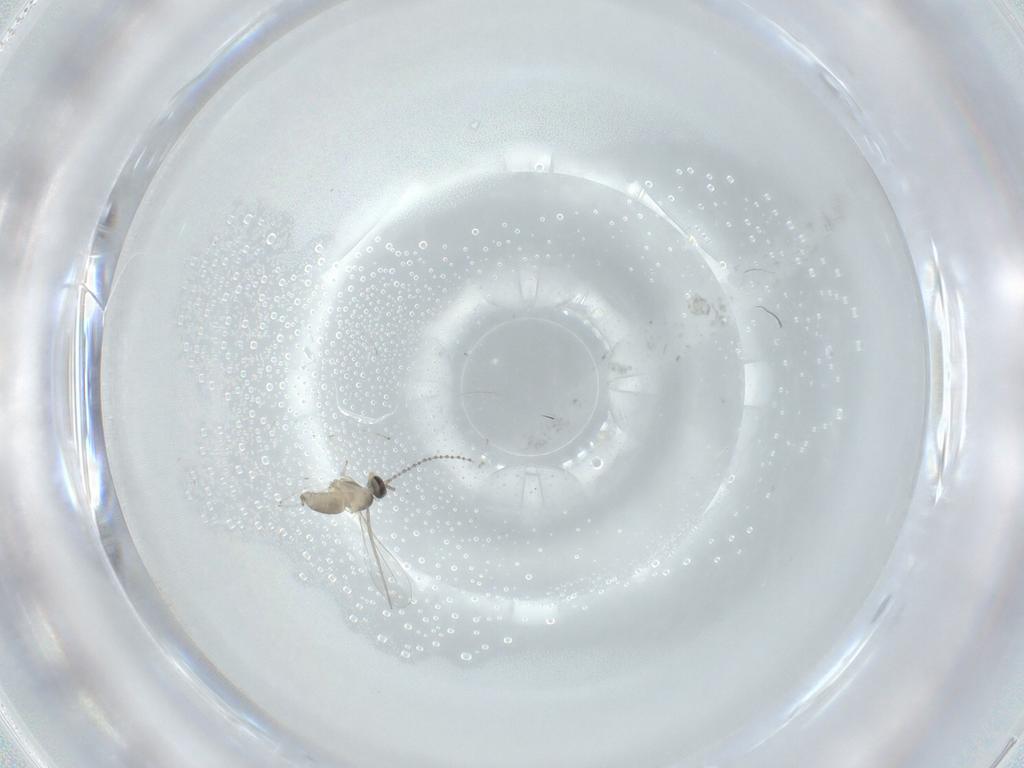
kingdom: Animalia
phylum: Arthropoda
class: Insecta
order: Diptera
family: Cecidomyiidae
